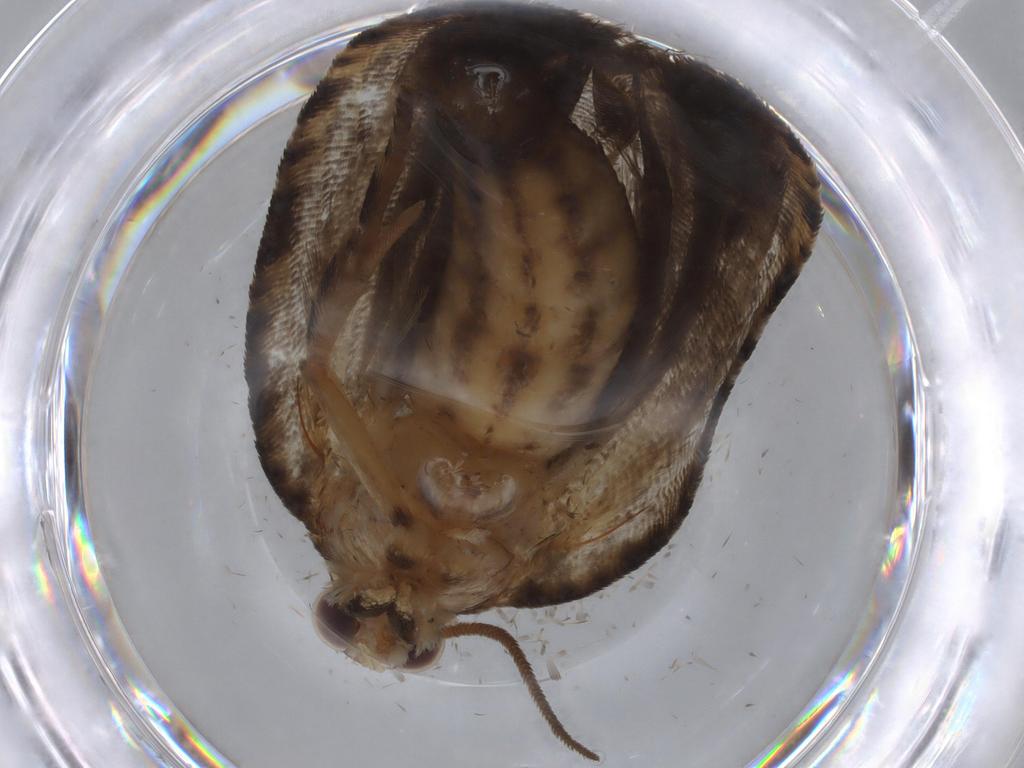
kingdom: Animalia
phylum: Arthropoda
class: Insecta
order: Lepidoptera
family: Tortricidae
